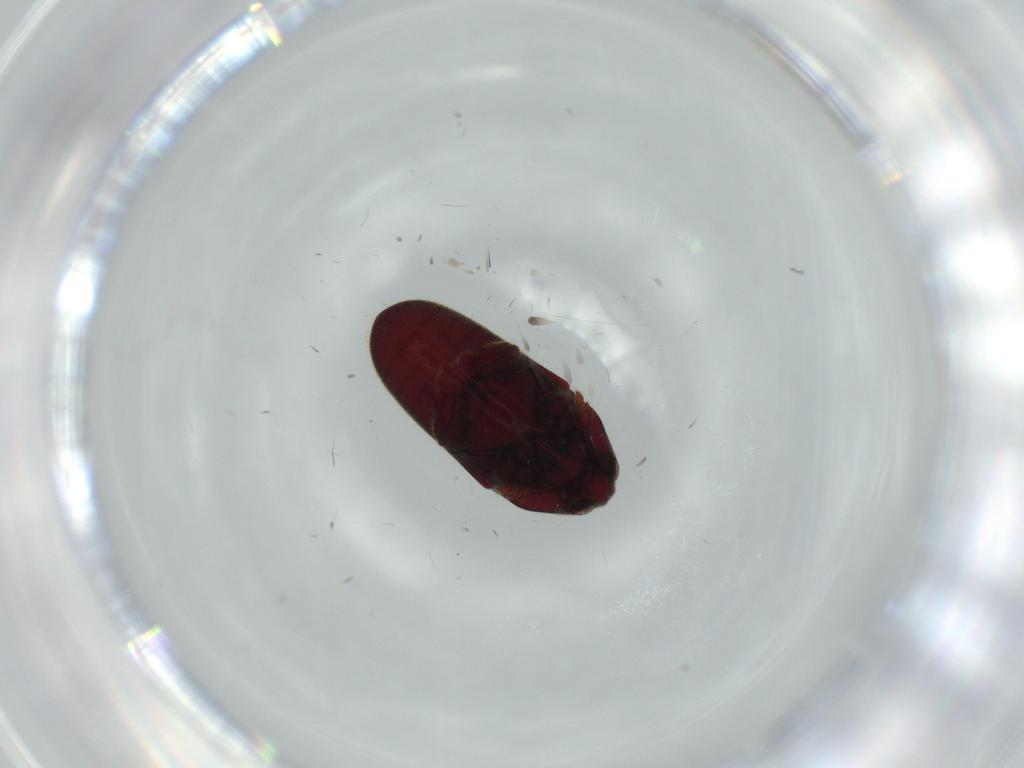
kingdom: Animalia
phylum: Arthropoda
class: Insecta
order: Coleoptera
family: Throscidae
